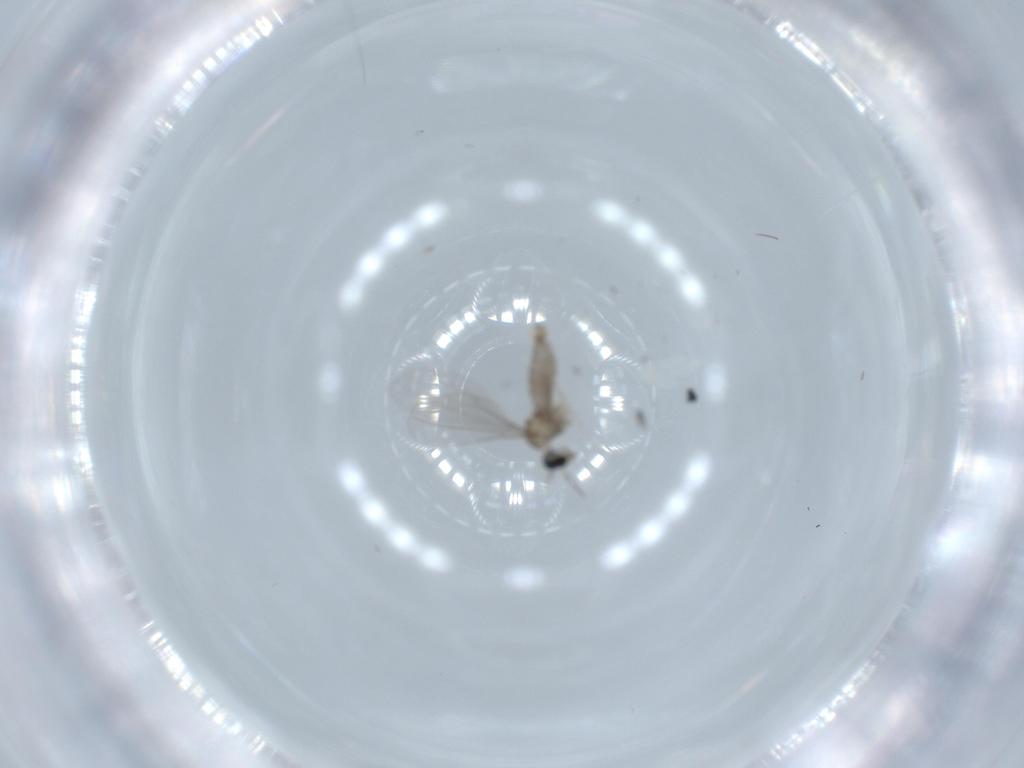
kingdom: Animalia
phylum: Arthropoda
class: Insecta
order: Diptera
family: Cecidomyiidae
